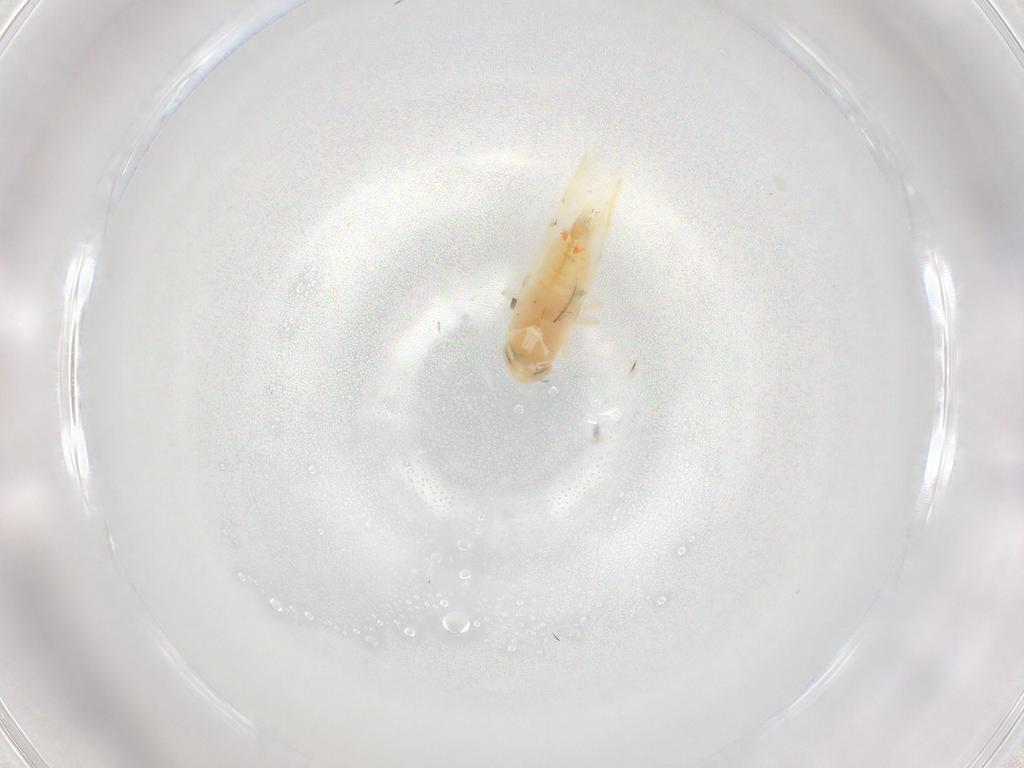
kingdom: Animalia
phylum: Arthropoda
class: Insecta
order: Hemiptera
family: Cicadellidae
